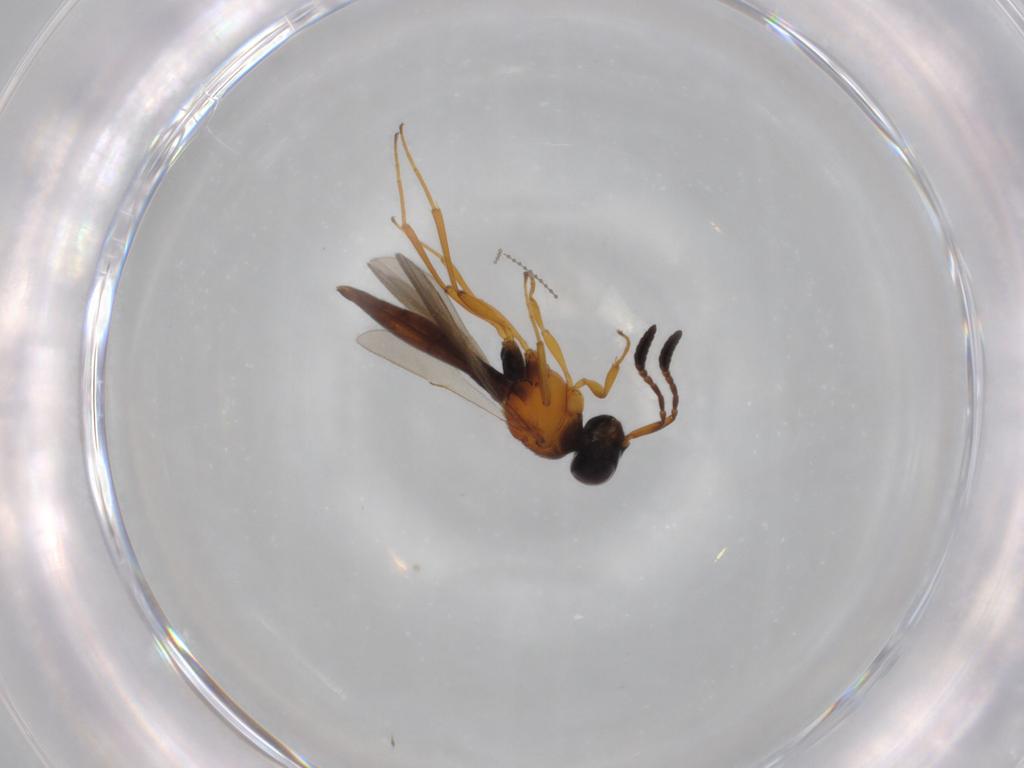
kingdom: Animalia
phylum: Arthropoda
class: Insecta
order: Hymenoptera
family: Scelionidae
